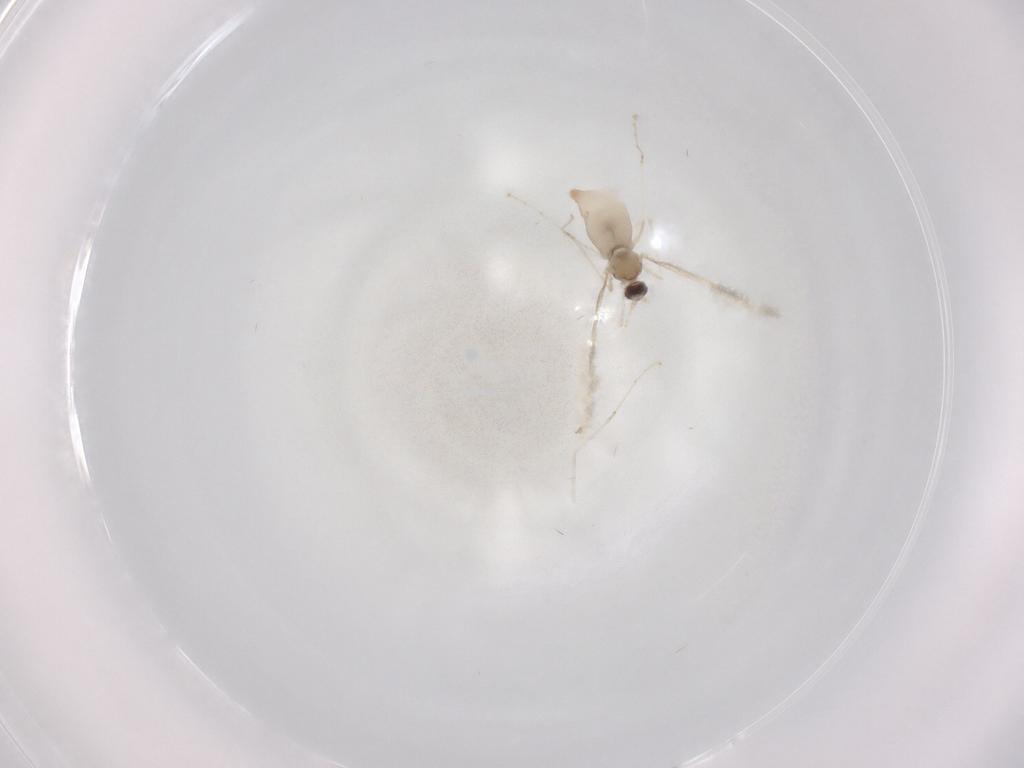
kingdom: Animalia
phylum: Arthropoda
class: Insecta
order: Diptera
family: Cecidomyiidae
